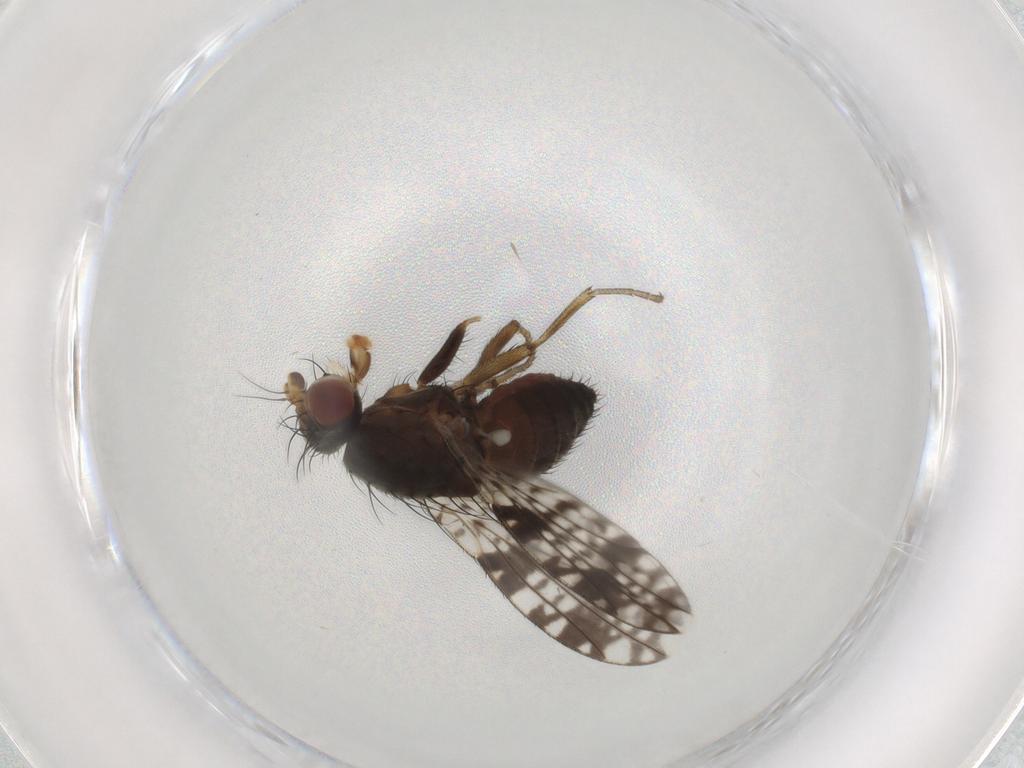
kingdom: Animalia
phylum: Arthropoda
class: Insecta
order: Diptera
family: Tephritidae
